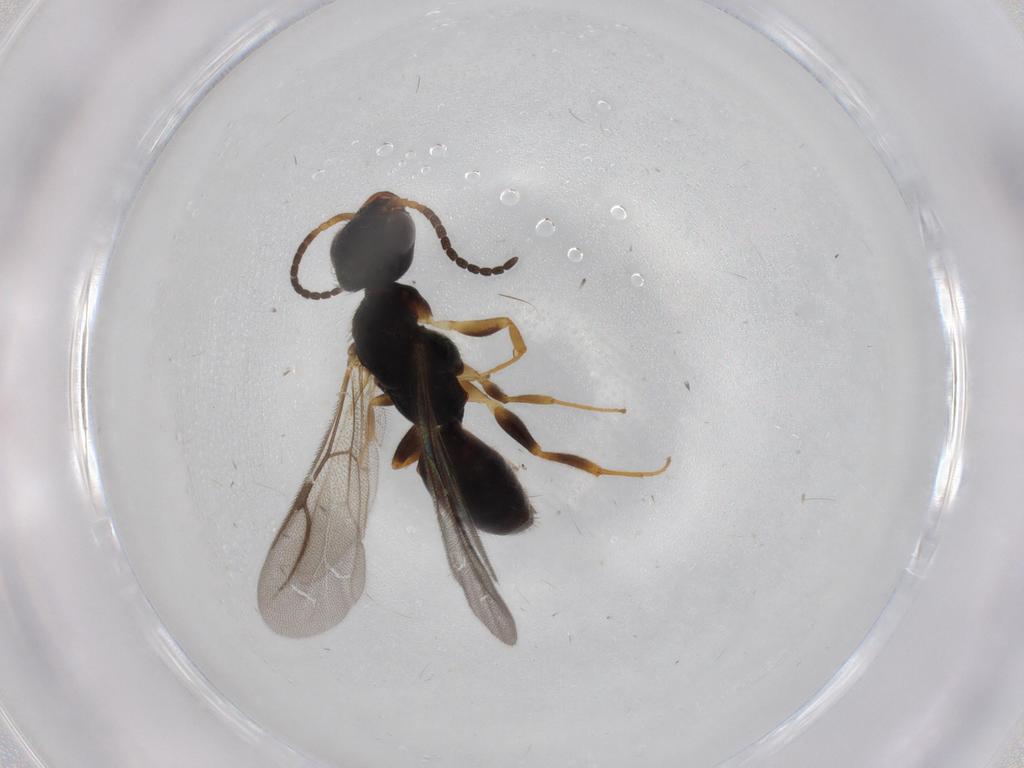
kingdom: Animalia
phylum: Arthropoda
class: Insecta
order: Hymenoptera
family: Bethylidae
